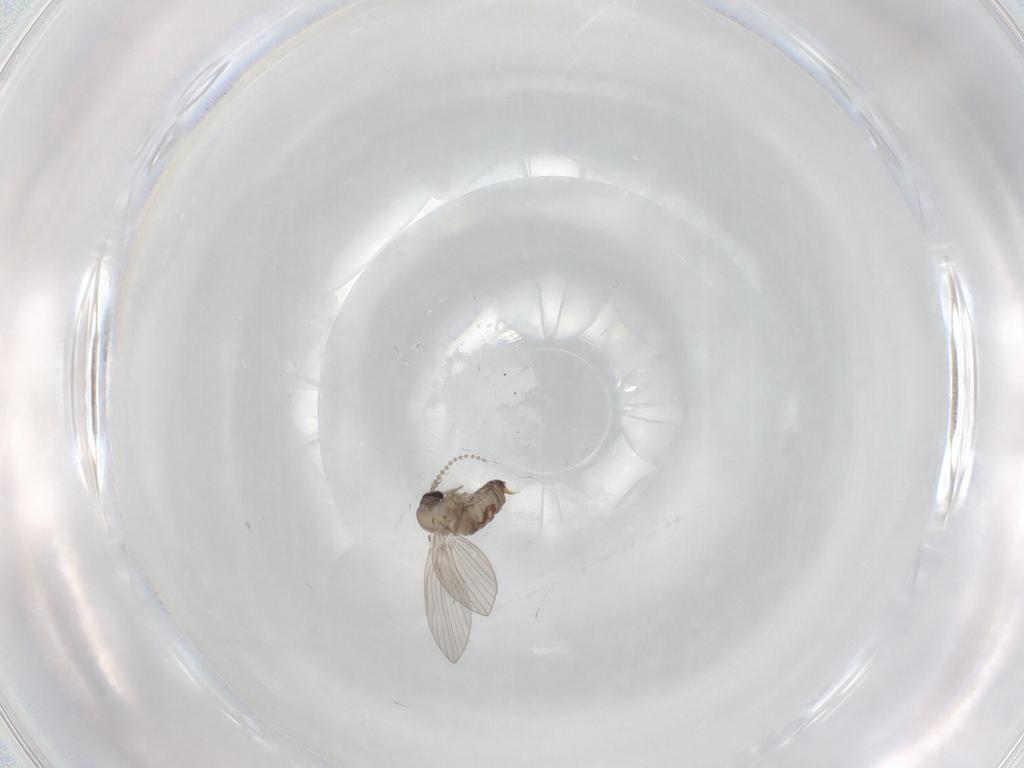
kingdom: Animalia
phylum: Arthropoda
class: Insecta
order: Diptera
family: Psychodidae
